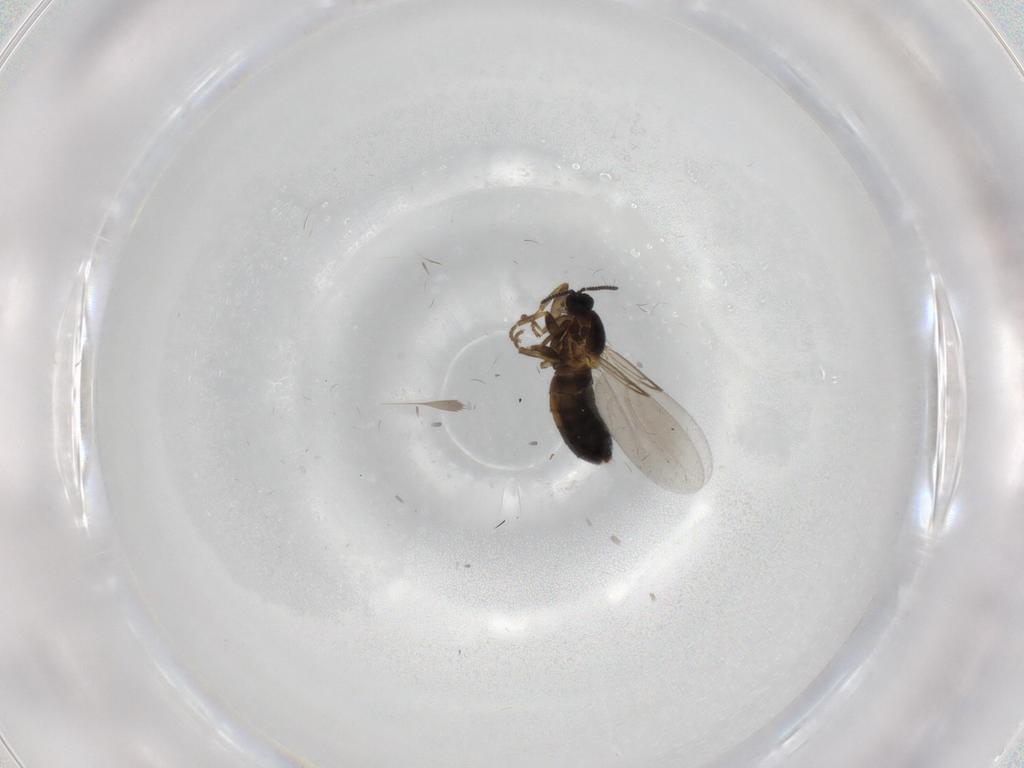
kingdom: Animalia
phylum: Arthropoda
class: Insecta
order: Diptera
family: Scatopsidae
